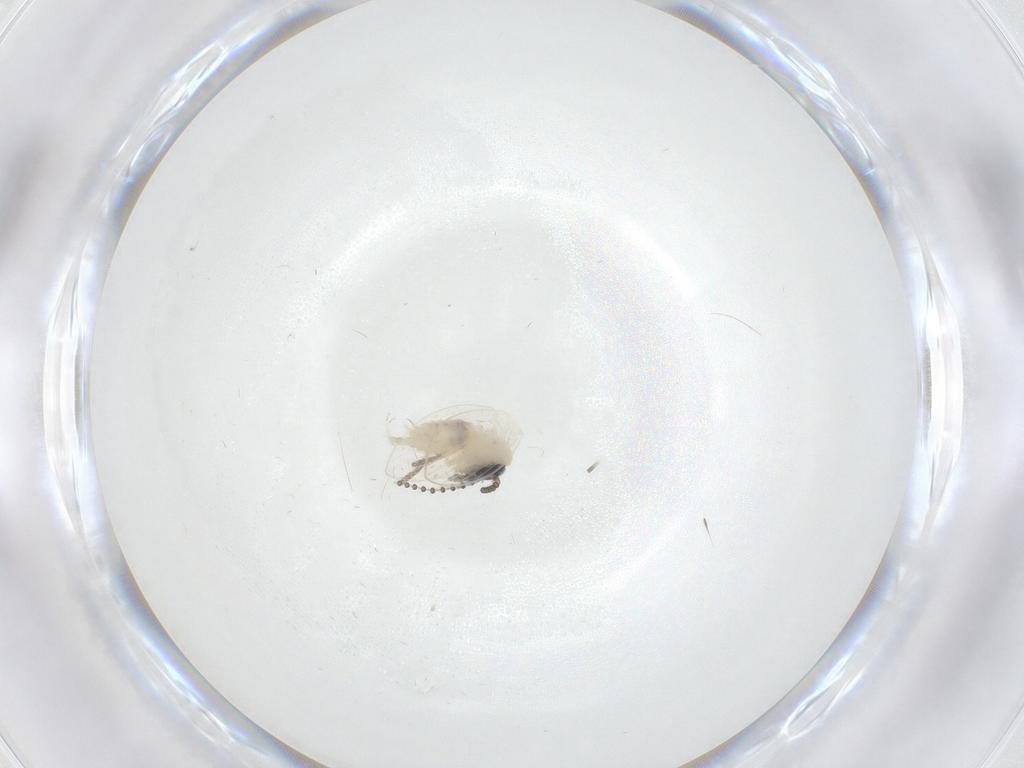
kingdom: Animalia
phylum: Arthropoda
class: Insecta
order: Diptera
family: Psychodidae
